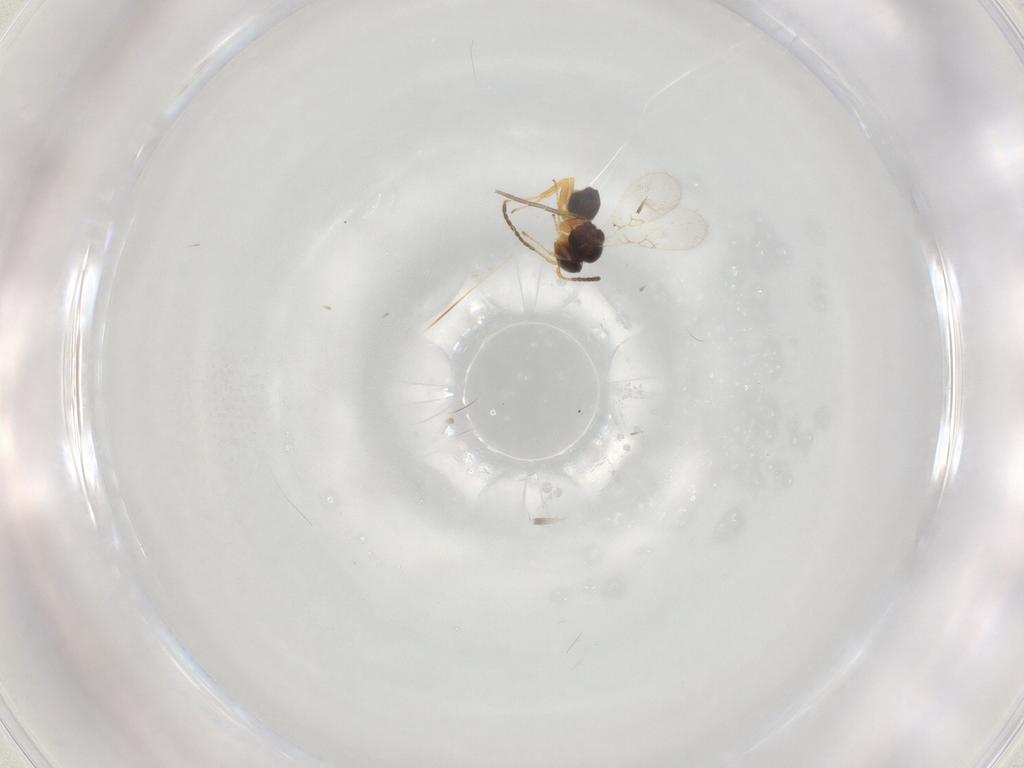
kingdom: Animalia
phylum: Arthropoda
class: Insecta
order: Hymenoptera
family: Figitidae
